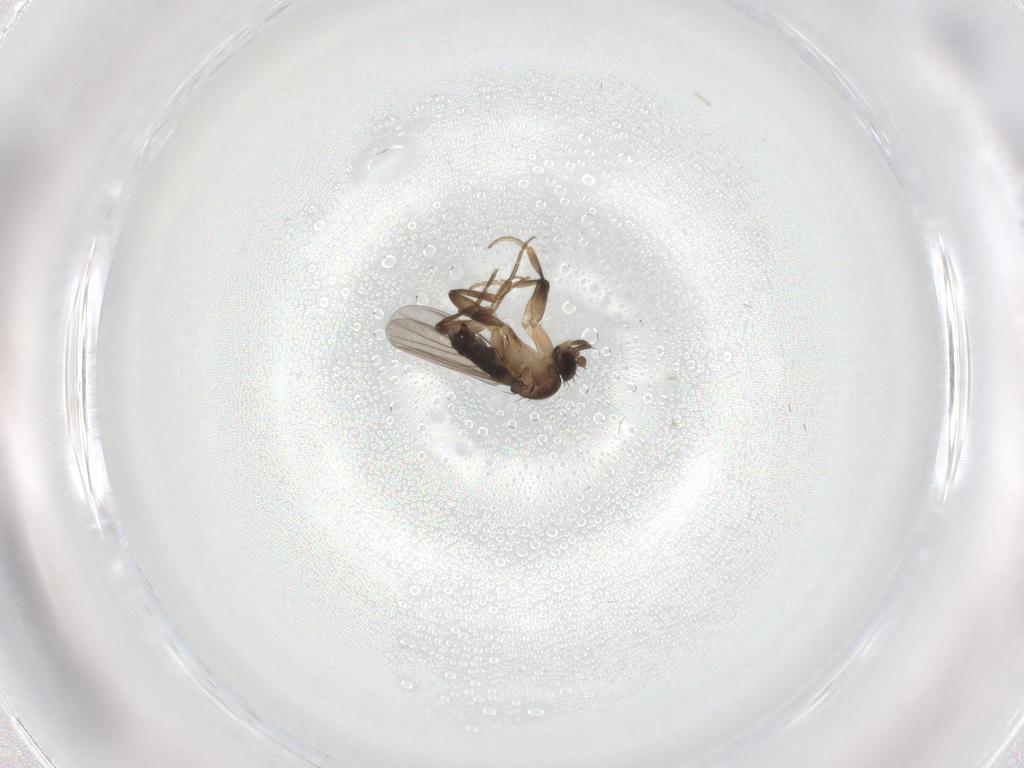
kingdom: Animalia
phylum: Arthropoda
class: Insecta
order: Diptera
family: Phoridae
